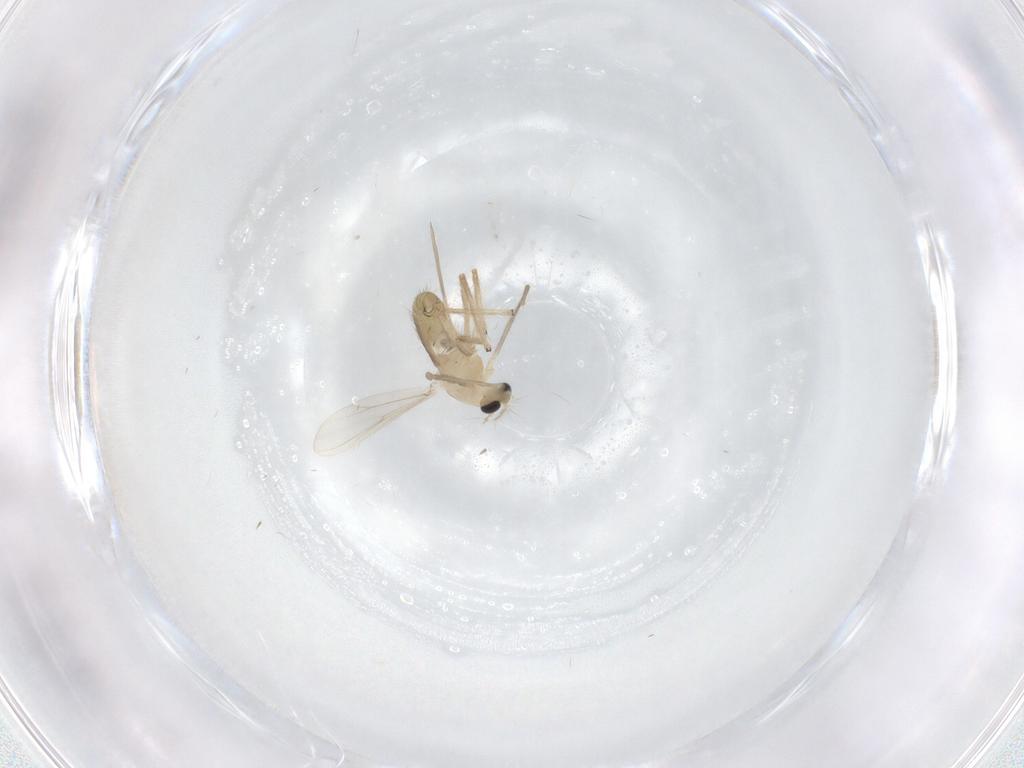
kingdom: Animalia
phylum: Arthropoda
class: Insecta
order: Diptera
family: Chironomidae
